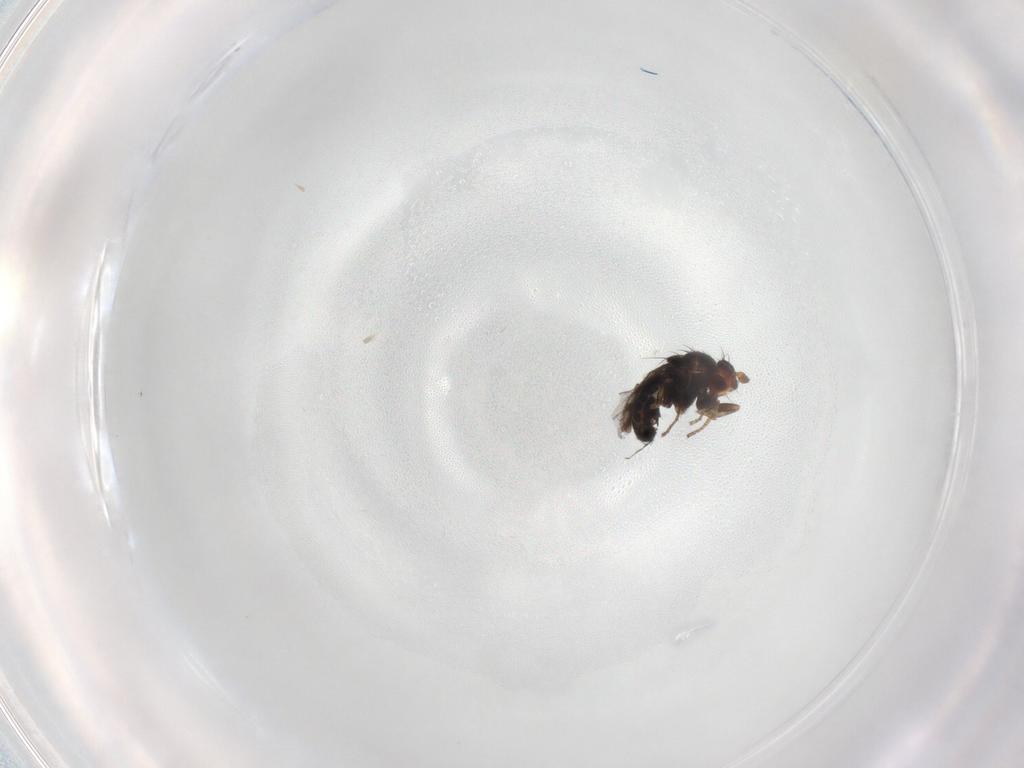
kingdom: Animalia
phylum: Arthropoda
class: Insecta
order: Diptera
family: Sphaeroceridae
